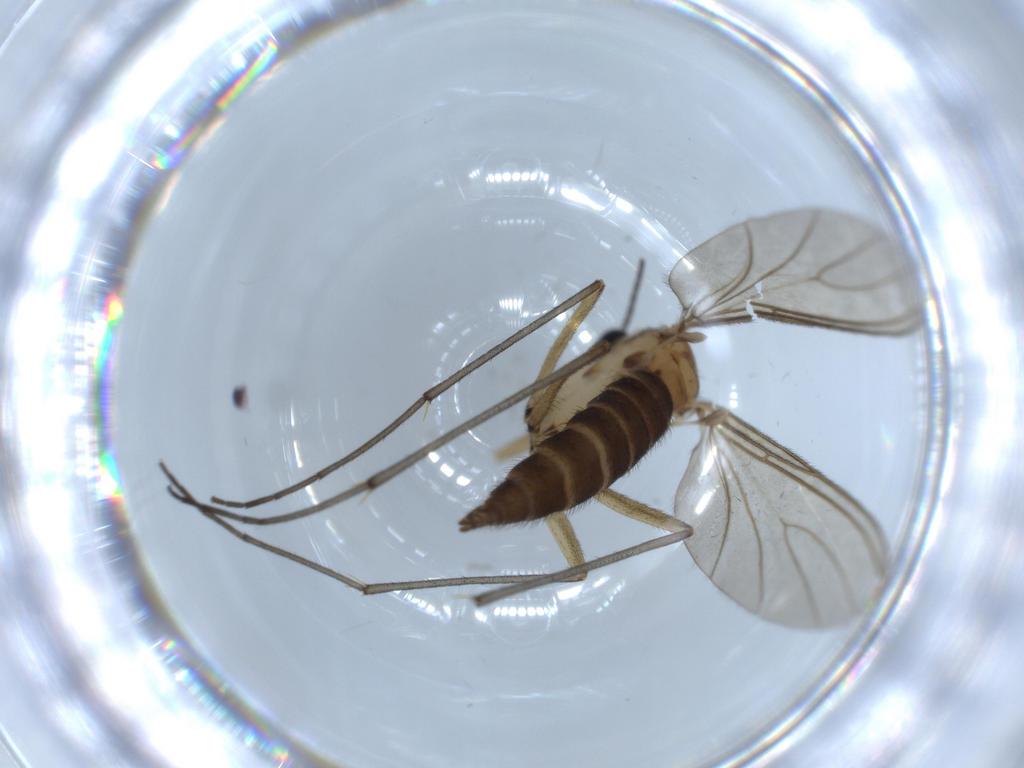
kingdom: Animalia
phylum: Arthropoda
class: Insecta
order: Diptera
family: Sciaridae
